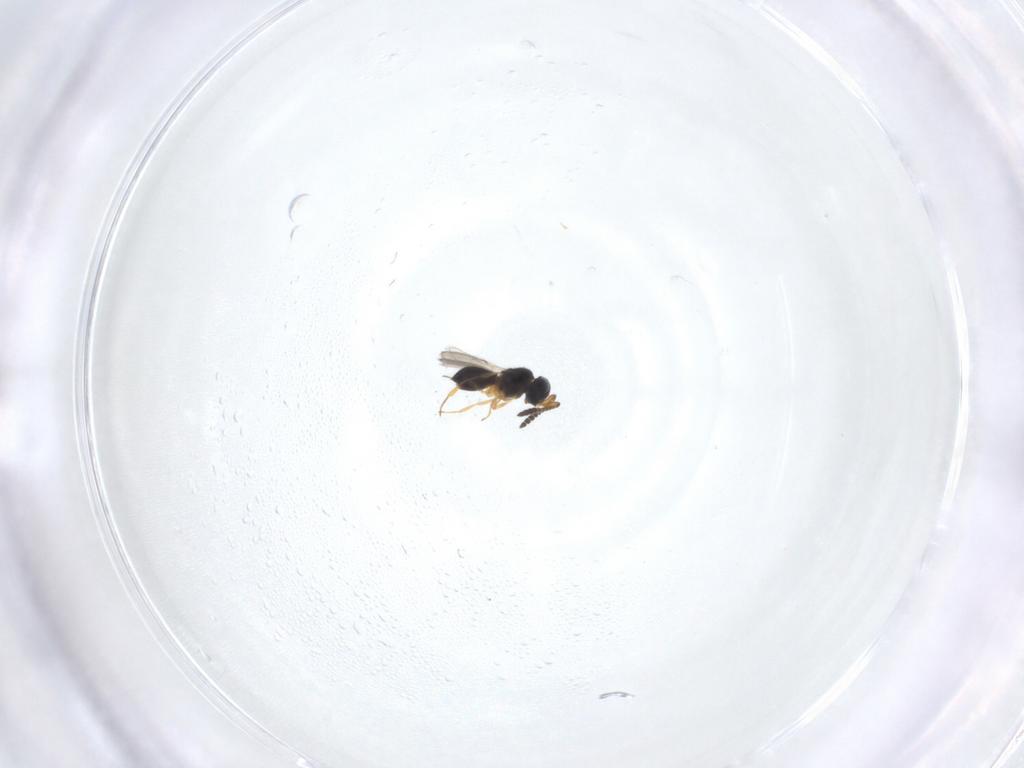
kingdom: Animalia
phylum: Arthropoda
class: Insecta
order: Hymenoptera
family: Scelionidae
